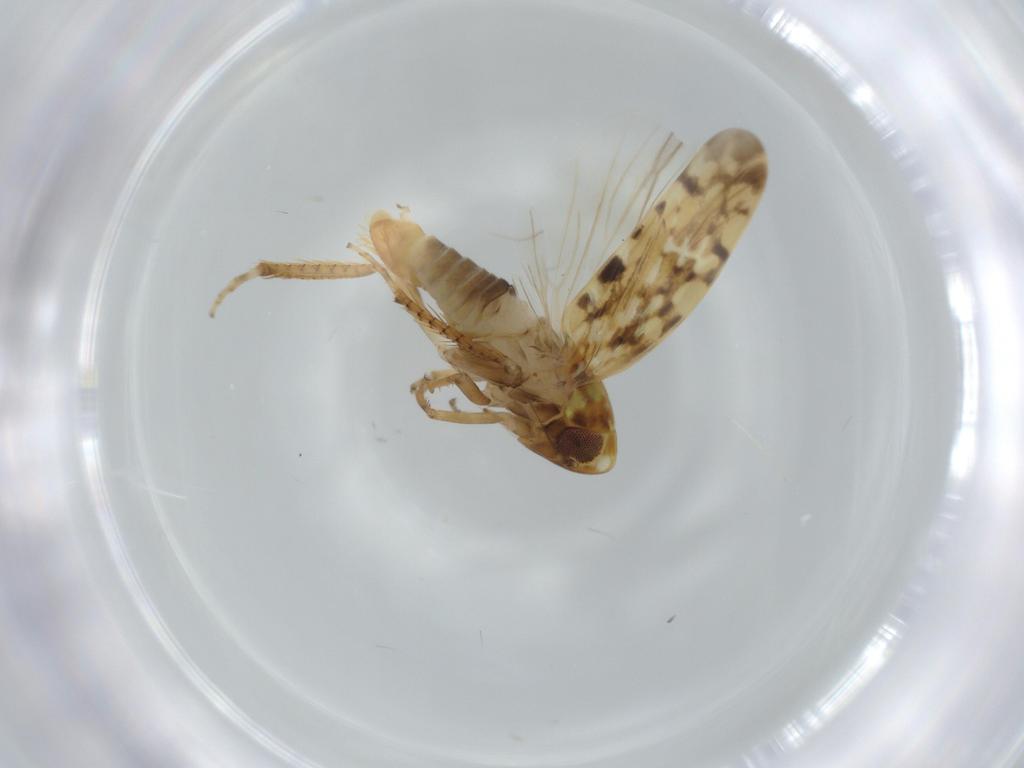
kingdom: Animalia
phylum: Arthropoda
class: Insecta
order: Hemiptera
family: Cicadellidae
